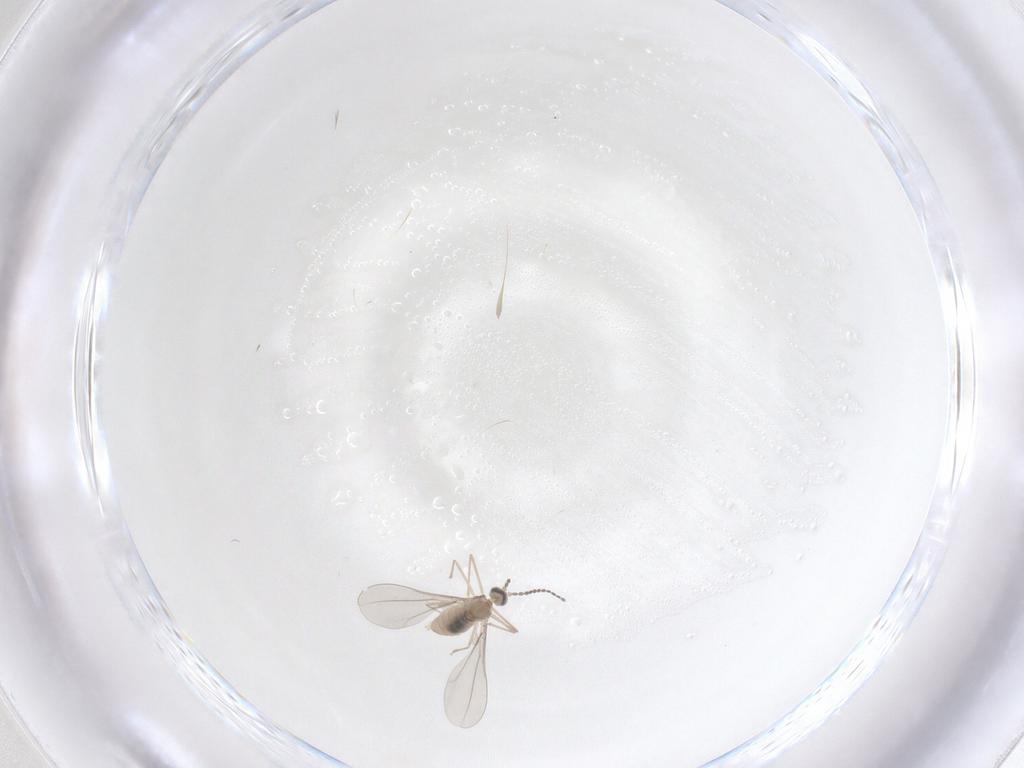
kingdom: Animalia
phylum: Arthropoda
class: Insecta
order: Diptera
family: Cecidomyiidae
